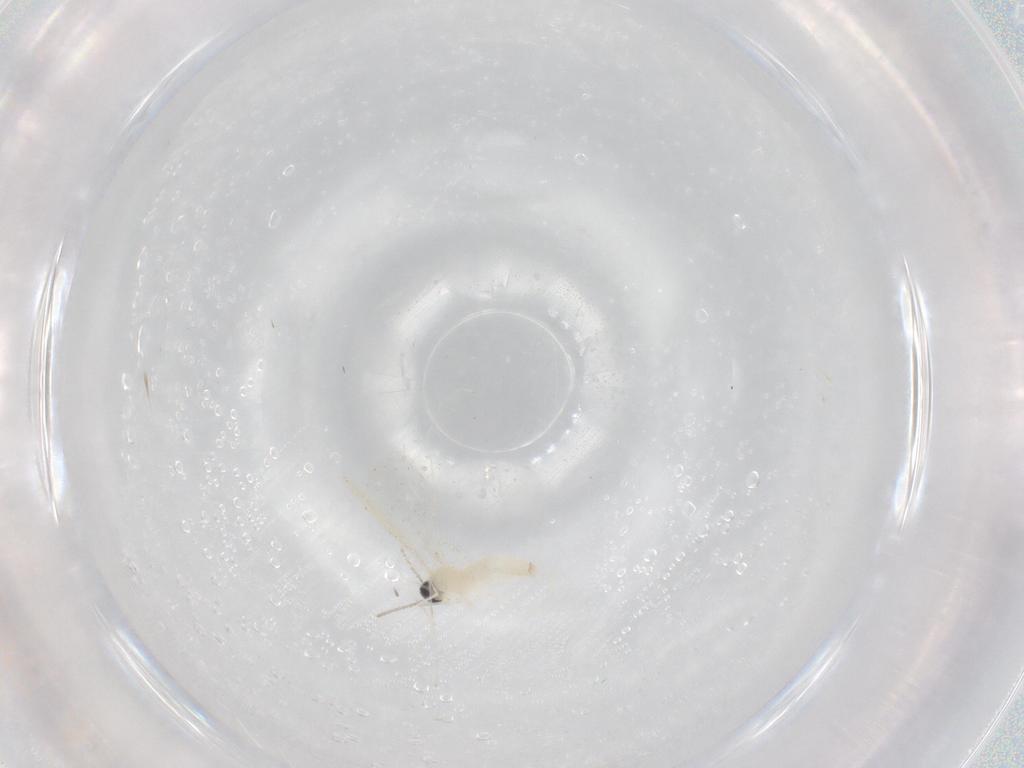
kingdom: Animalia
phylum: Arthropoda
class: Insecta
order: Diptera
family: Cecidomyiidae
